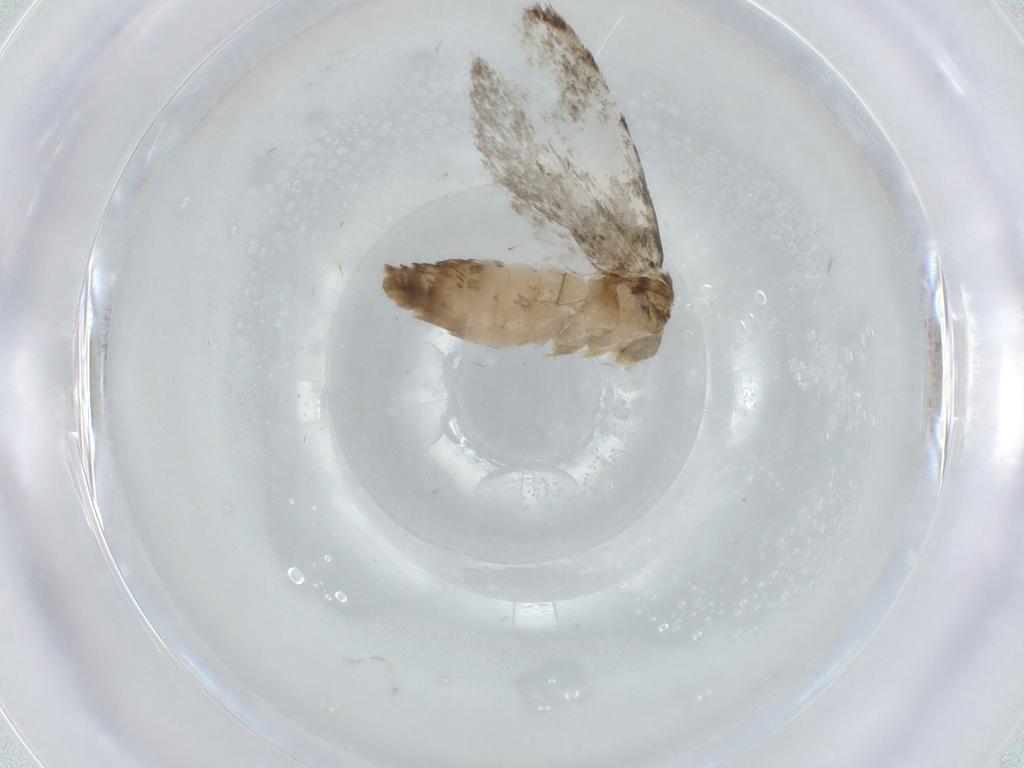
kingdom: Animalia
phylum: Arthropoda
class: Insecta
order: Lepidoptera
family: Tineidae
